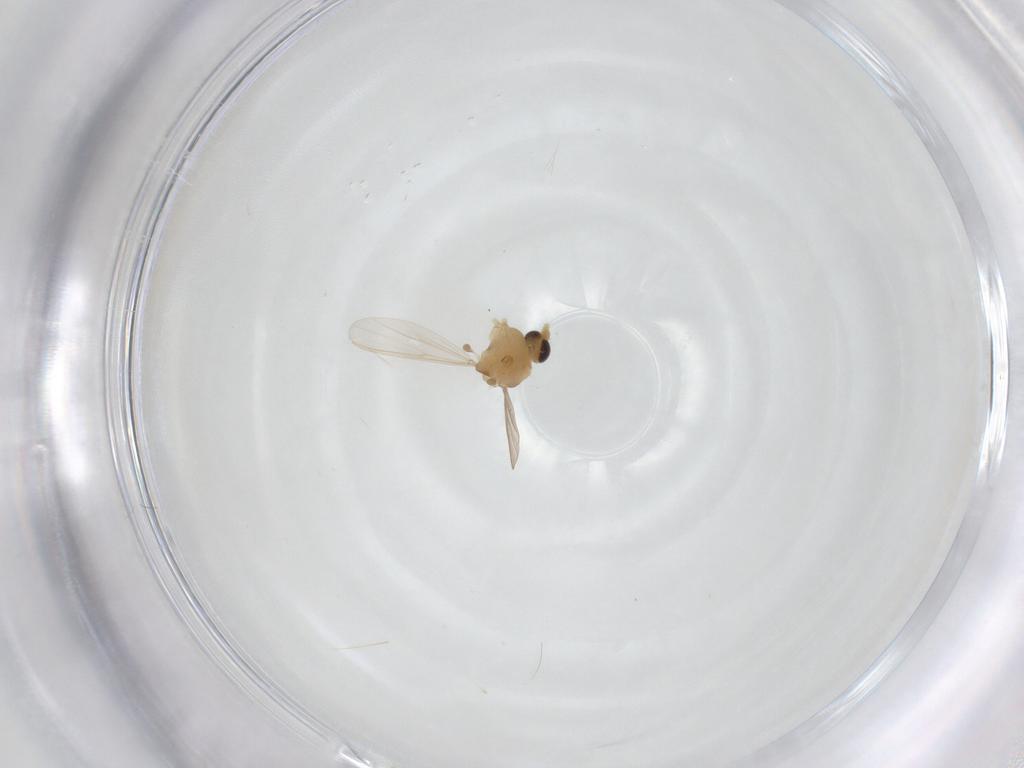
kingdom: Animalia
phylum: Arthropoda
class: Insecta
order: Diptera
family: Chironomidae
